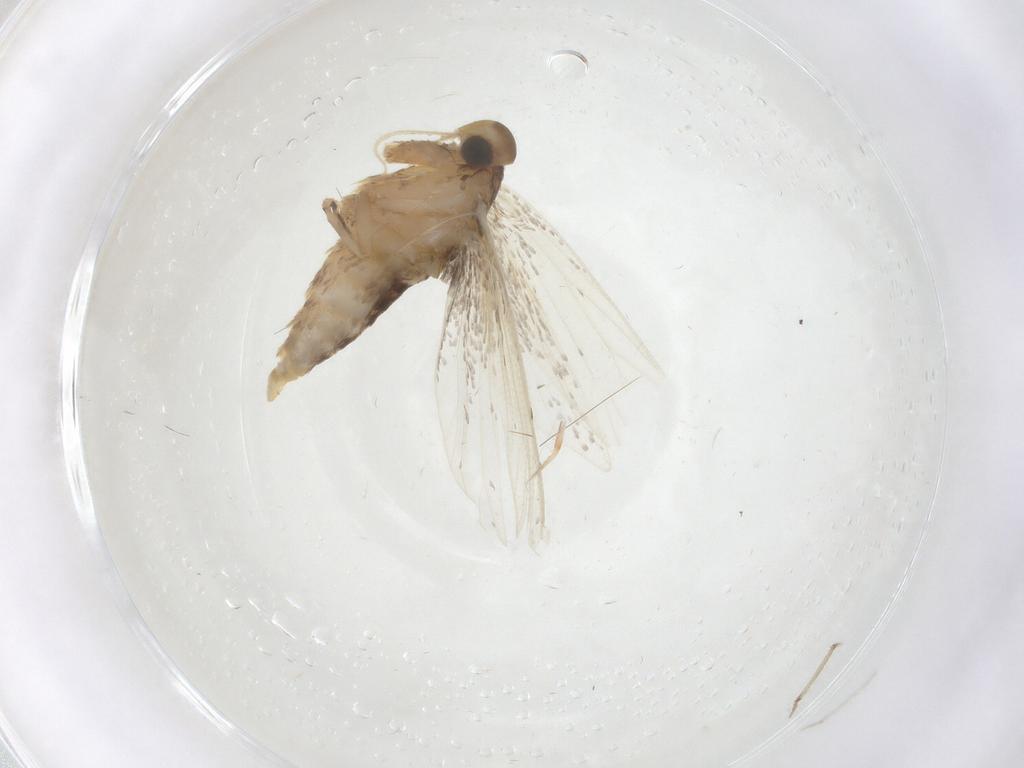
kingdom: Animalia
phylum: Arthropoda
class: Insecta
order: Lepidoptera
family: Oecophoridae
